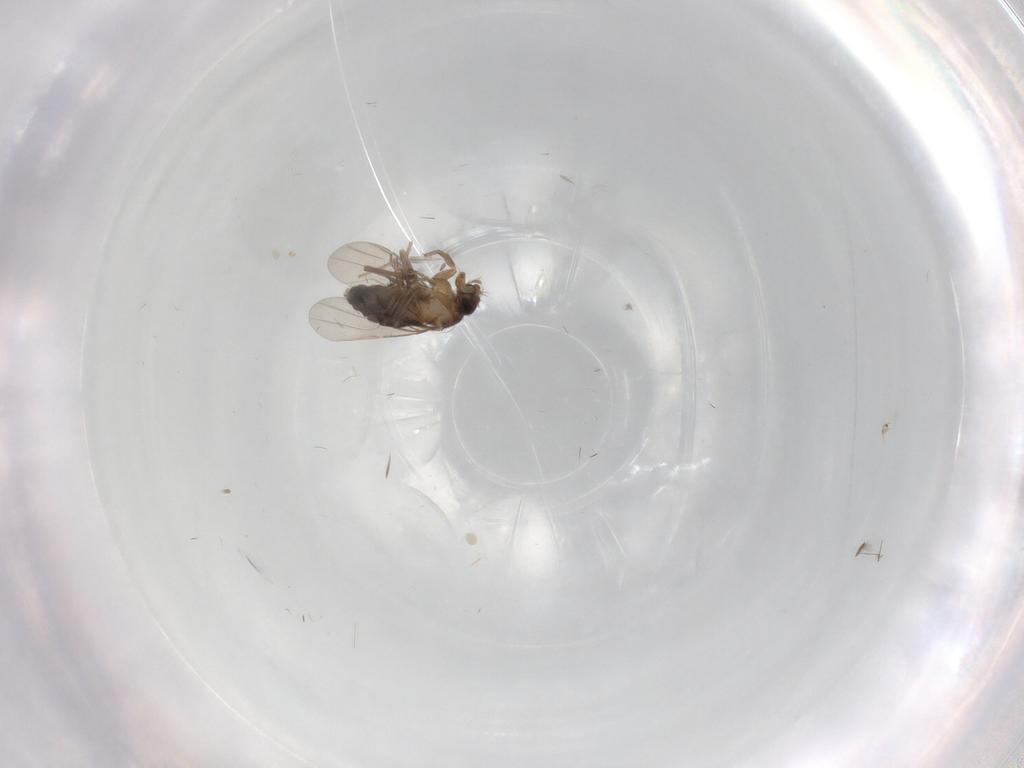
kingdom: Animalia
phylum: Arthropoda
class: Insecta
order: Diptera
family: Chironomidae
